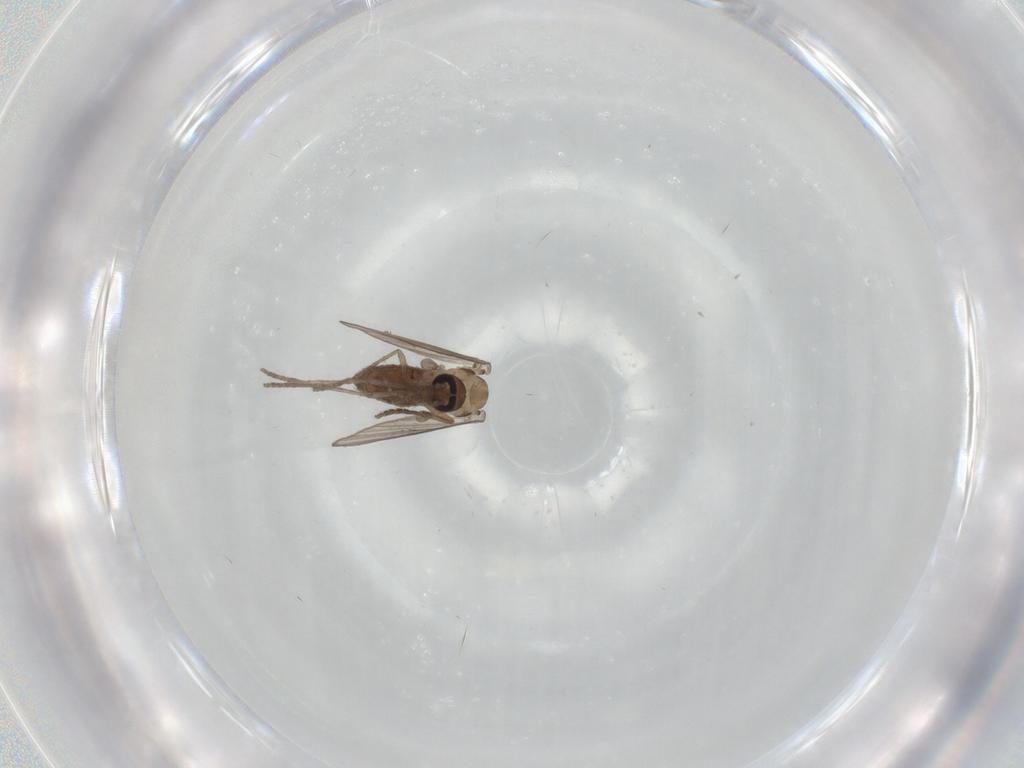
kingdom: Animalia
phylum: Arthropoda
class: Insecta
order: Diptera
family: Psychodidae
